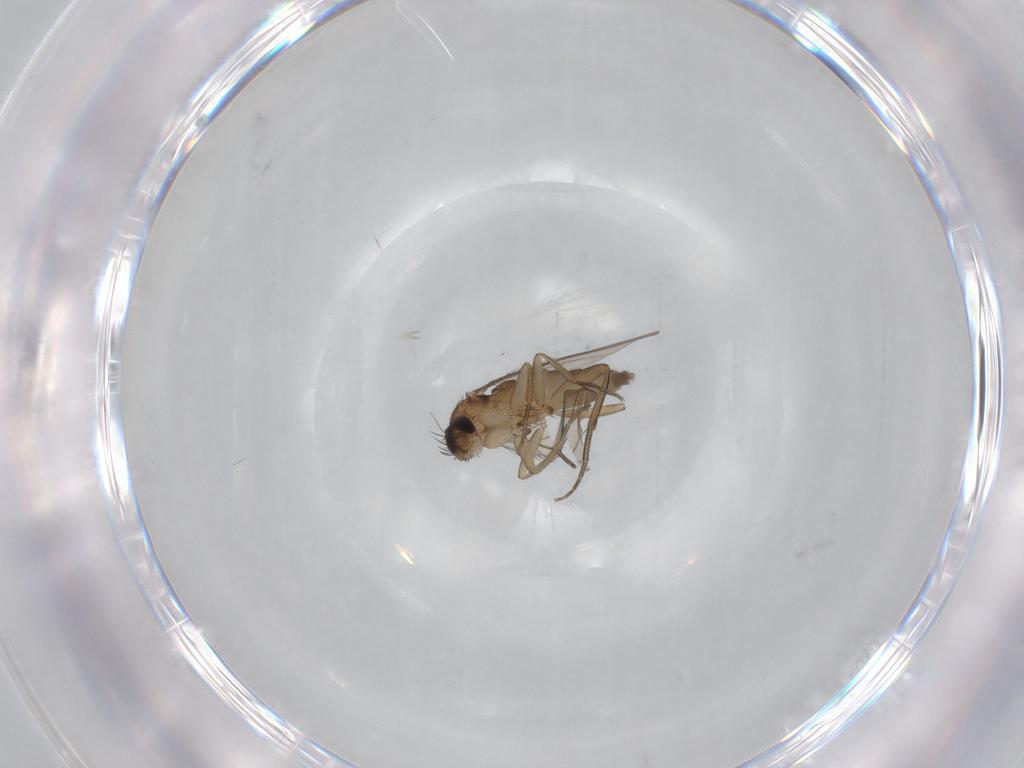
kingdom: Animalia
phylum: Arthropoda
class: Insecta
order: Diptera
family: Phoridae
